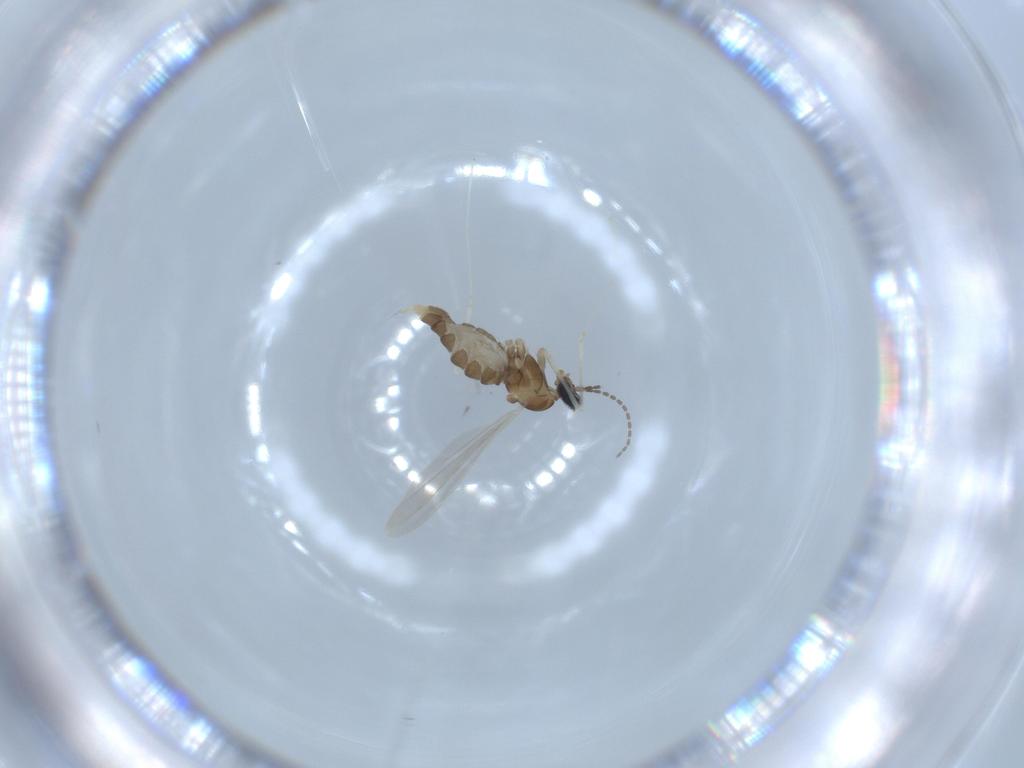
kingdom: Animalia
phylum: Arthropoda
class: Insecta
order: Diptera
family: Cecidomyiidae
